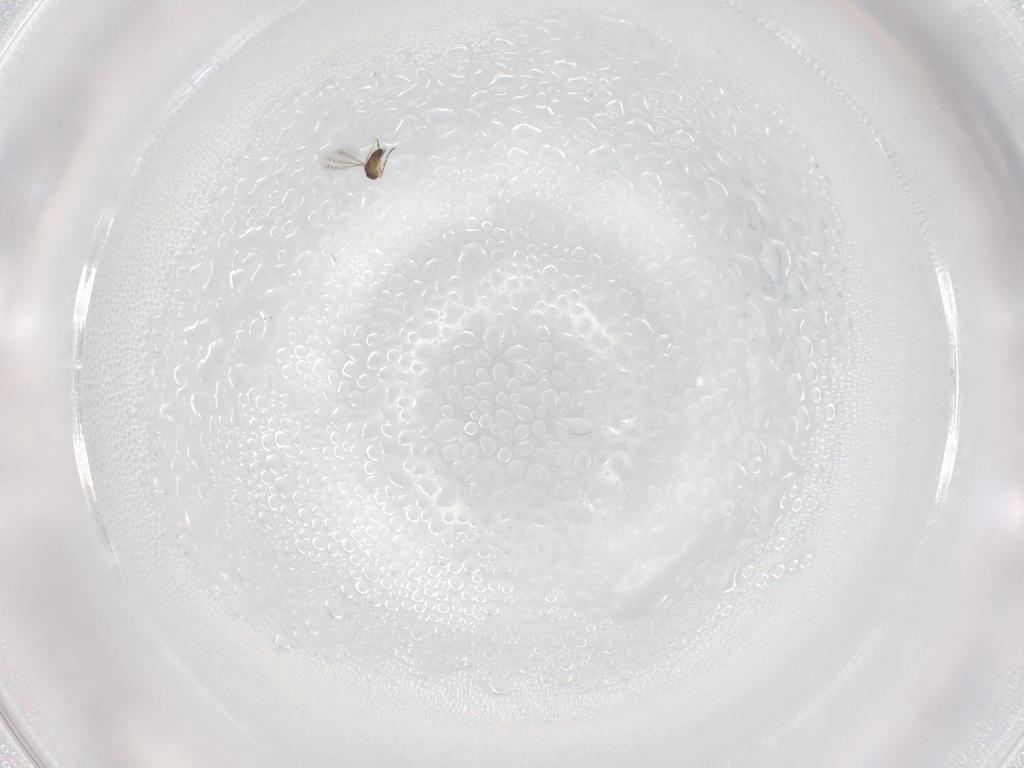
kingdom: Animalia
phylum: Arthropoda
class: Insecta
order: Hymenoptera
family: Mymaridae
